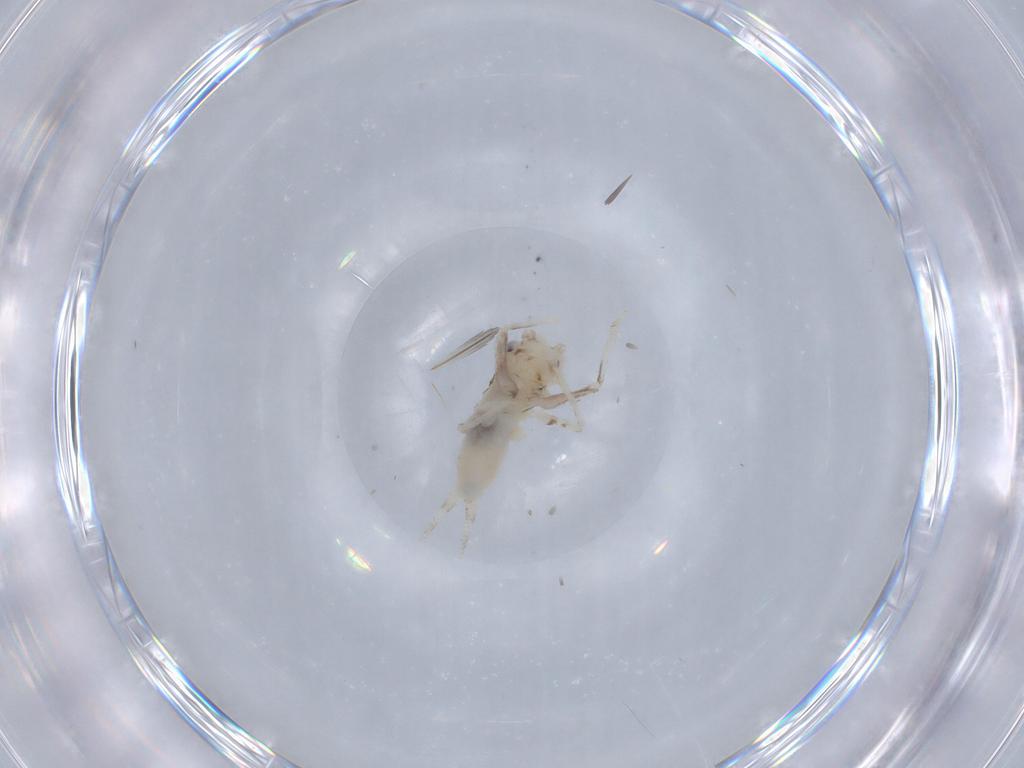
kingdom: Animalia
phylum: Arthropoda
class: Insecta
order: Orthoptera
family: Trigonidiidae
